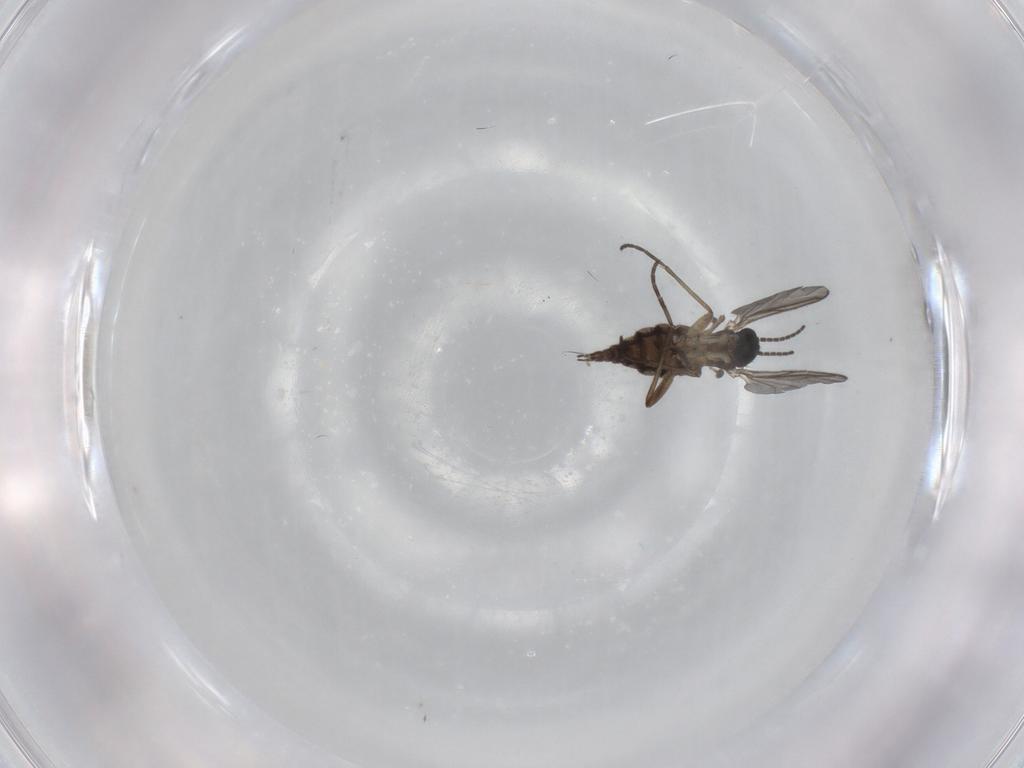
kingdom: Animalia
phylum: Arthropoda
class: Insecta
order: Diptera
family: Sciaridae
